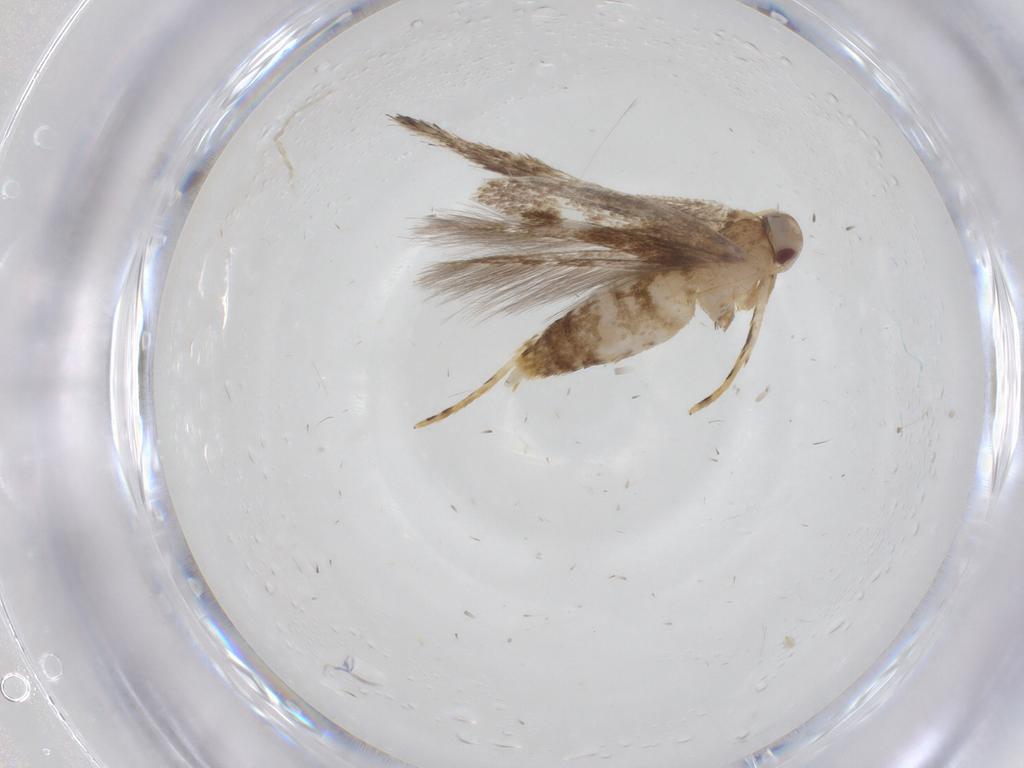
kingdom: Animalia
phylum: Arthropoda
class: Insecta
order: Lepidoptera
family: Cosmopterigidae
